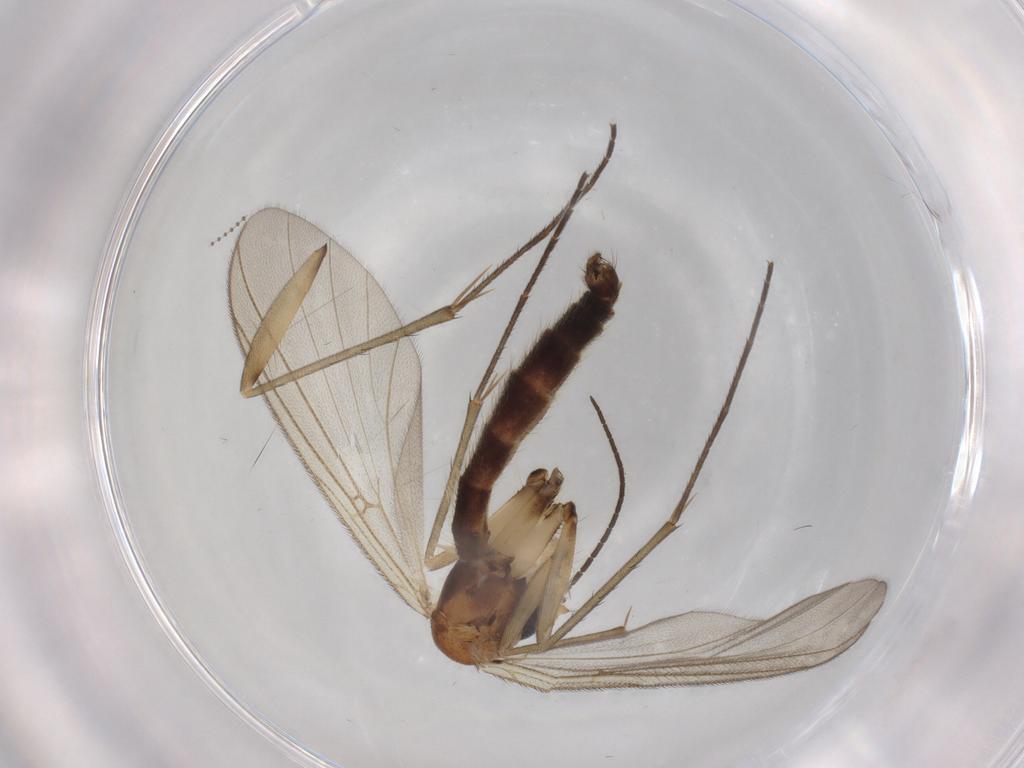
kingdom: Animalia
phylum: Arthropoda
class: Insecta
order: Diptera
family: Mycetophilidae
